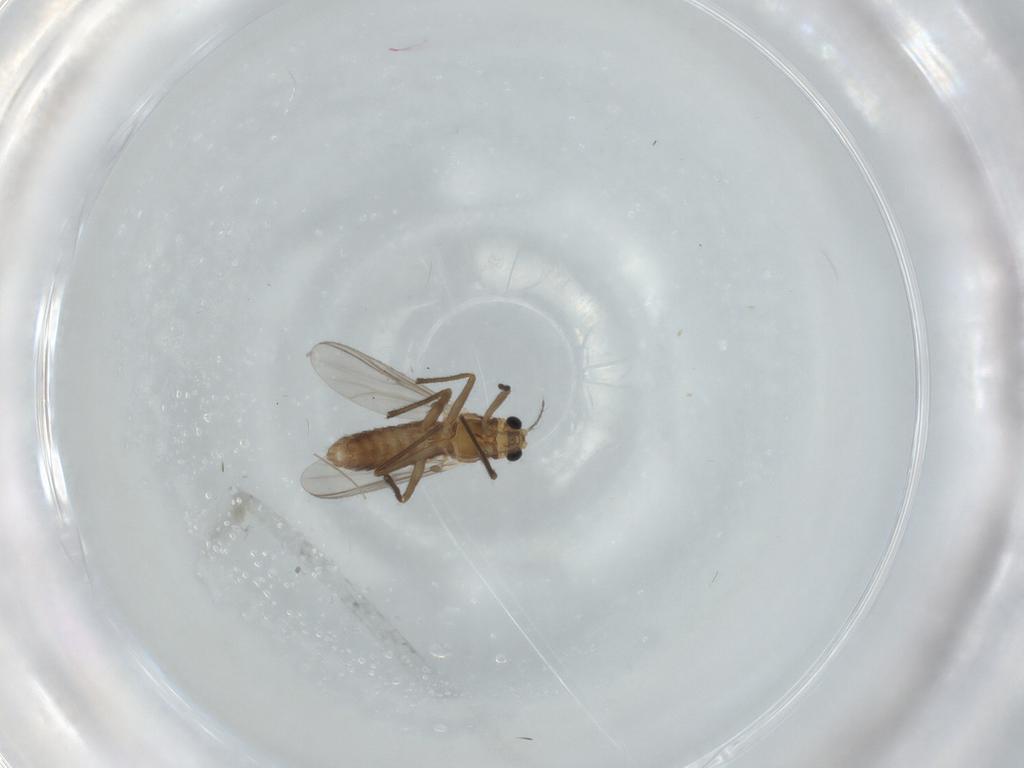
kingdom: Animalia
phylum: Arthropoda
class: Insecta
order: Diptera
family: Chironomidae
